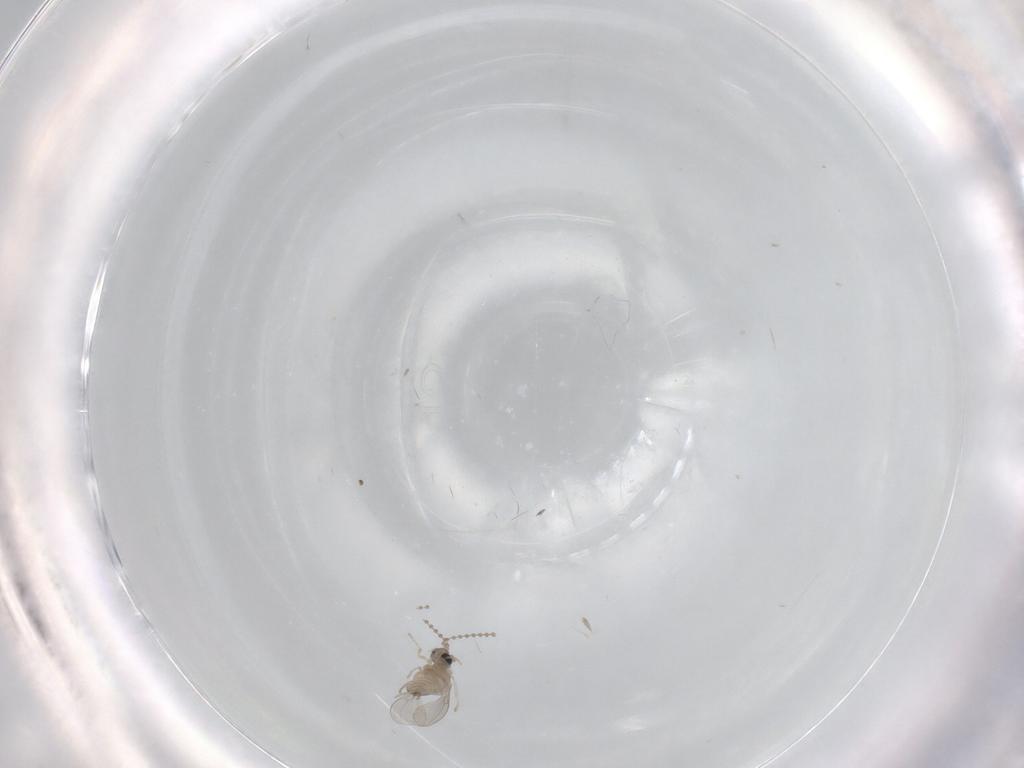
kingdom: Animalia
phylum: Arthropoda
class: Insecta
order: Diptera
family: Cecidomyiidae
